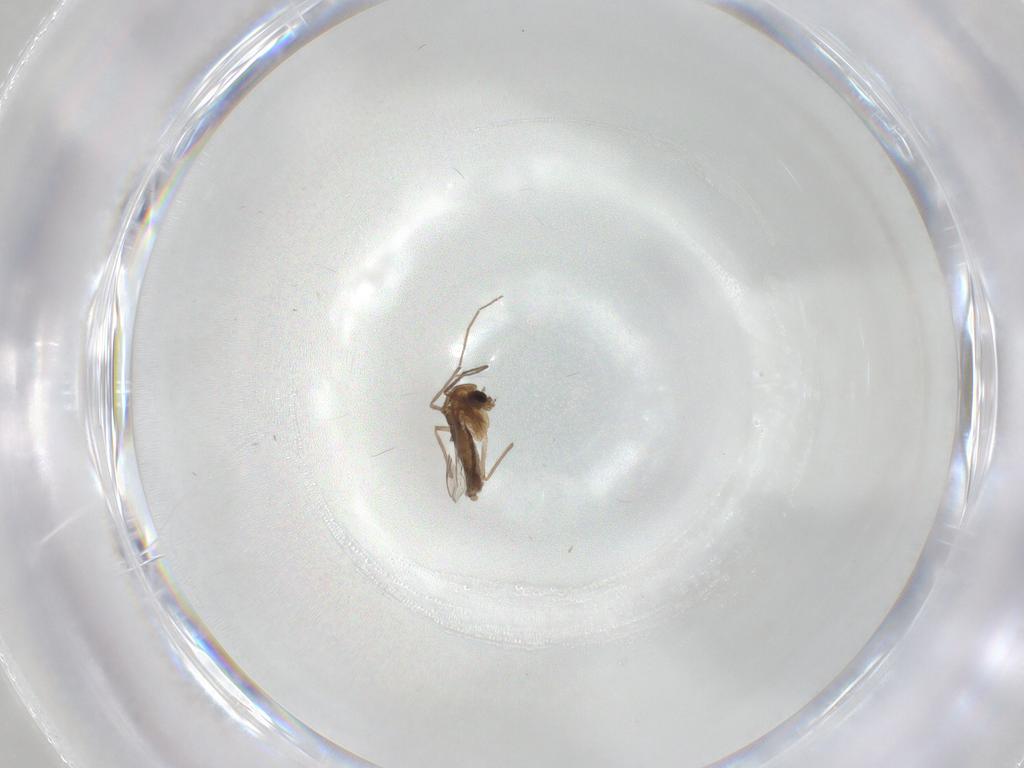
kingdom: Animalia
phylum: Arthropoda
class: Insecta
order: Diptera
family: Chironomidae
